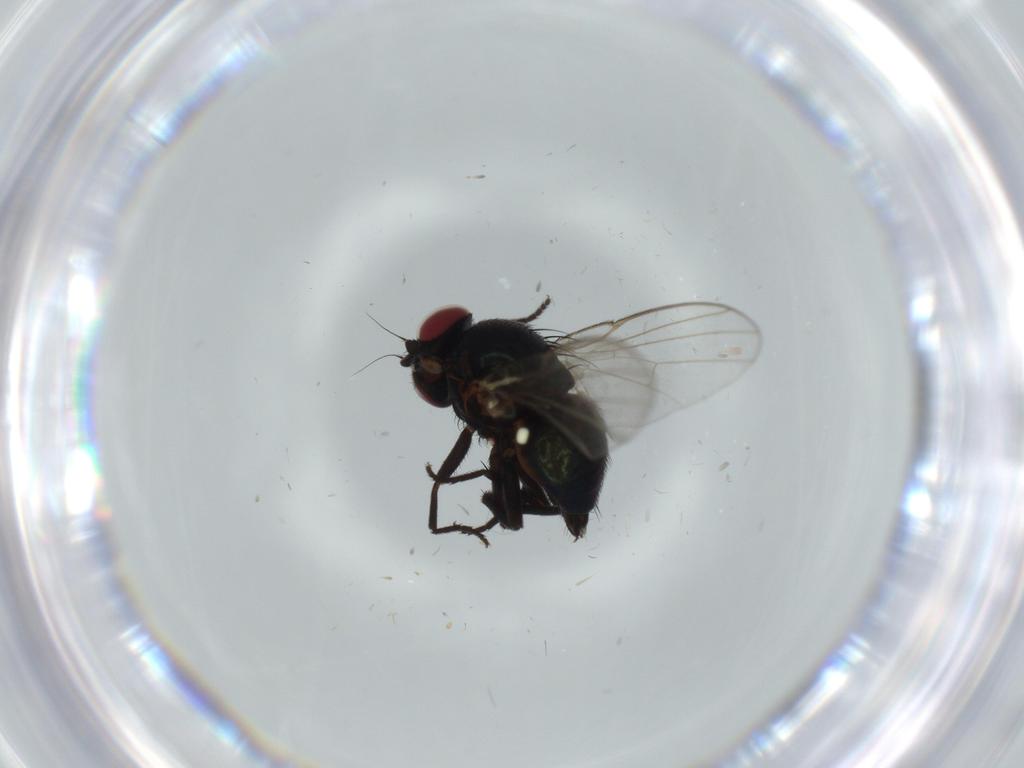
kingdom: Animalia
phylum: Arthropoda
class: Insecta
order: Diptera
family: Agromyzidae
